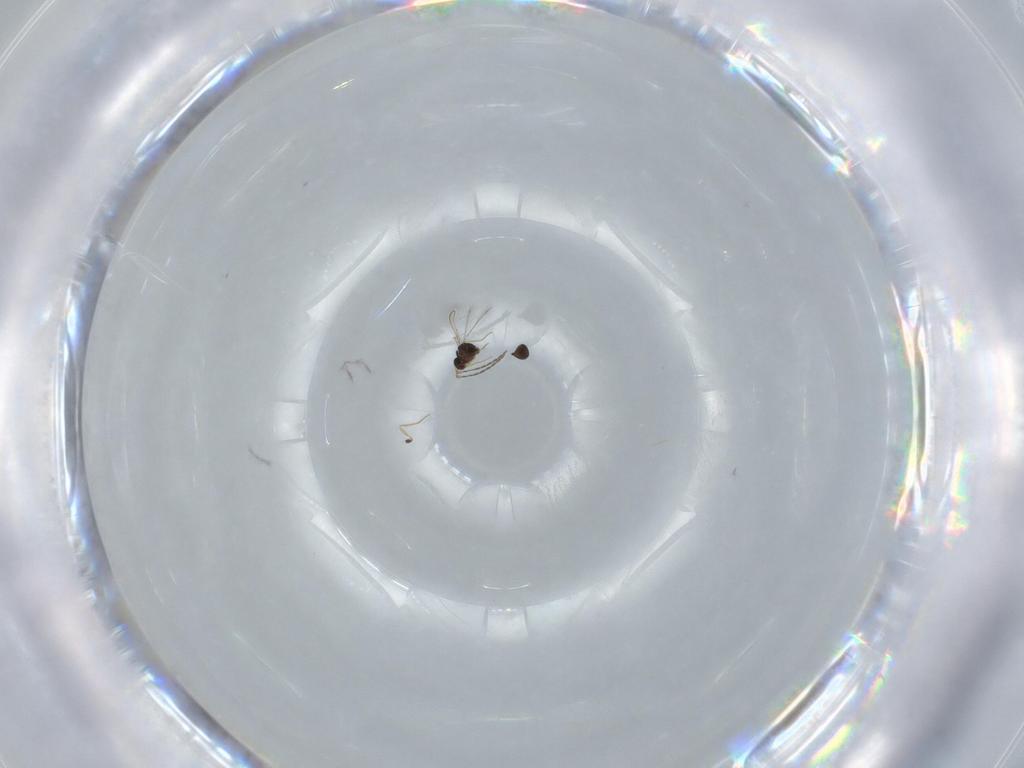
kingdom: Animalia
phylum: Arthropoda
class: Insecta
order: Hymenoptera
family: Mymaridae
